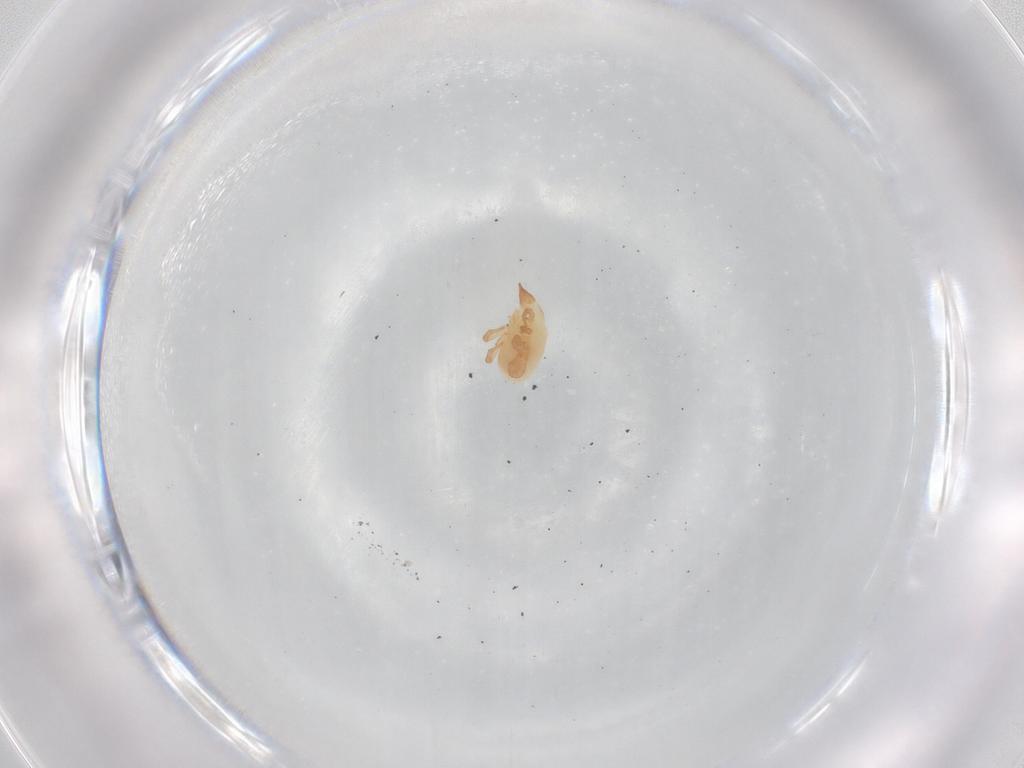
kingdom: Animalia
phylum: Arthropoda
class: Arachnida
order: Trombidiformes
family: Bdellidae
